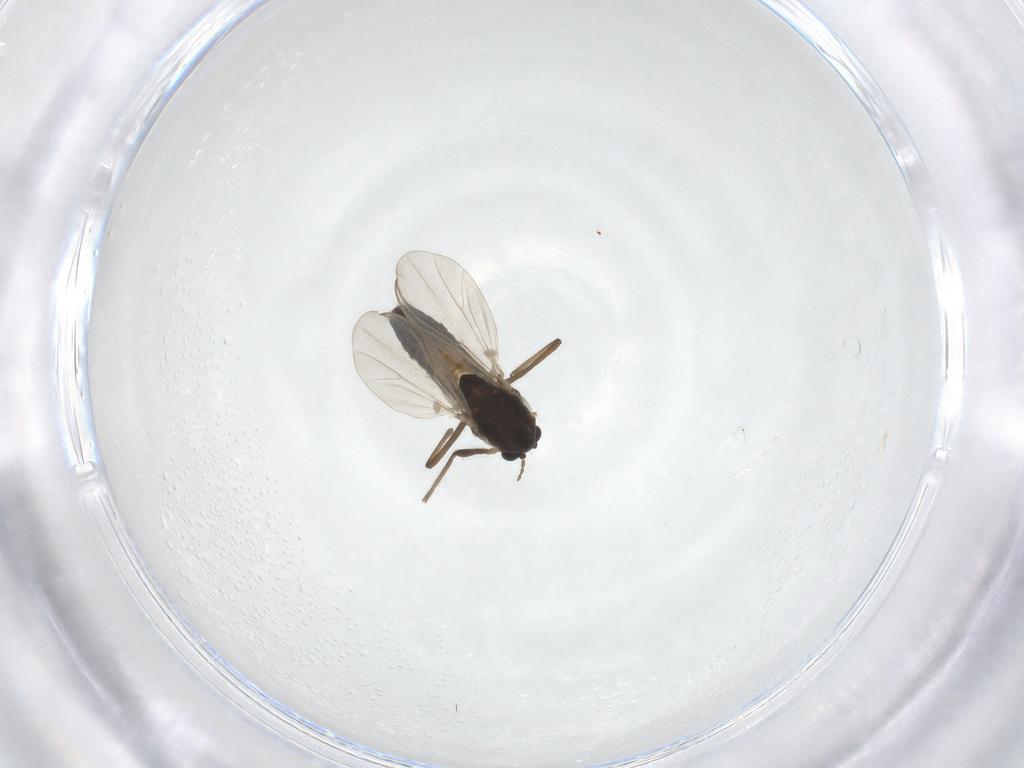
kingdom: Animalia
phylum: Arthropoda
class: Insecta
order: Diptera
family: Chironomidae
